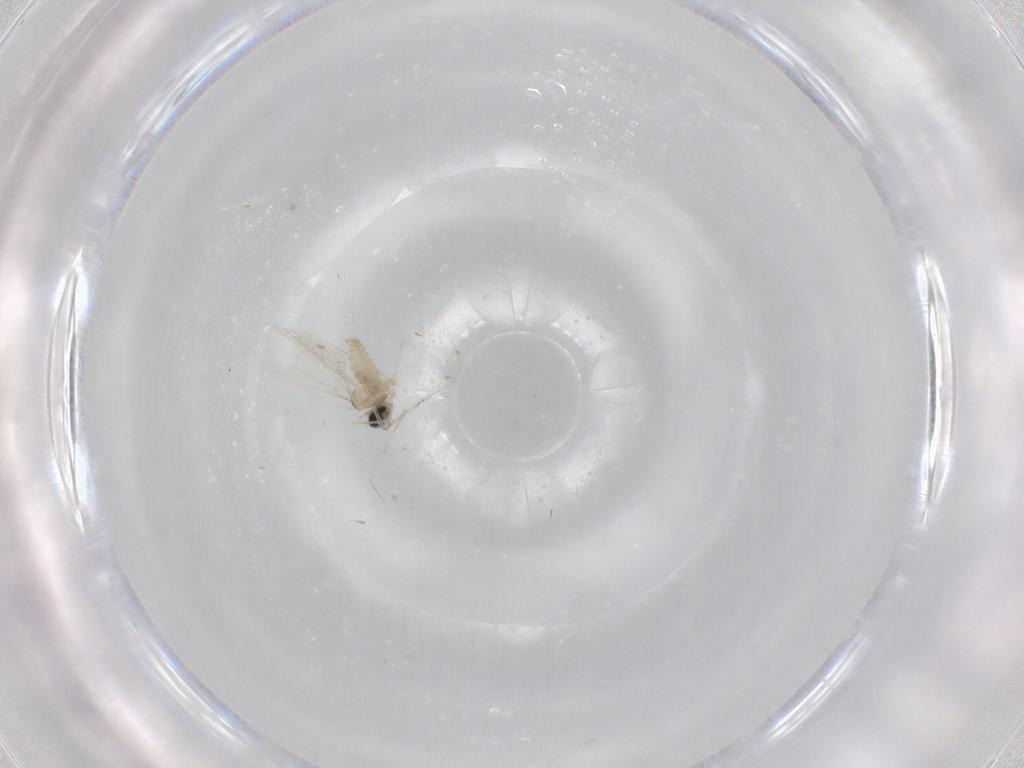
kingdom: Animalia
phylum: Arthropoda
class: Insecta
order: Diptera
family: Cecidomyiidae
